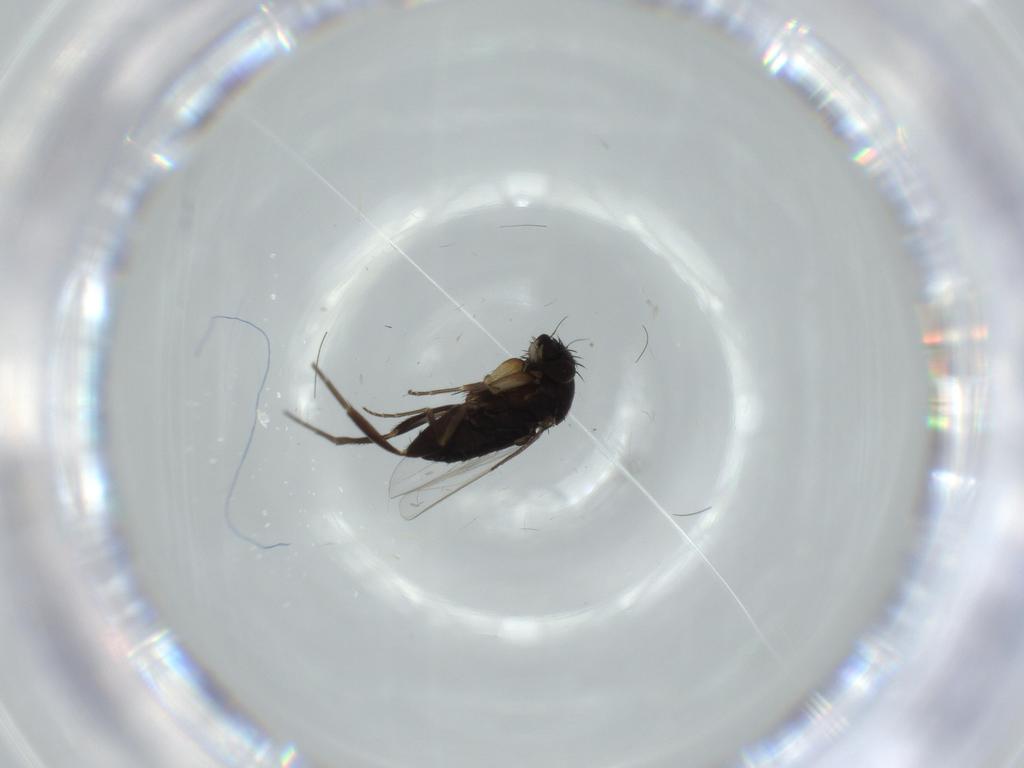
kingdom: Animalia
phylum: Arthropoda
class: Insecta
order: Diptera
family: Phoridae
